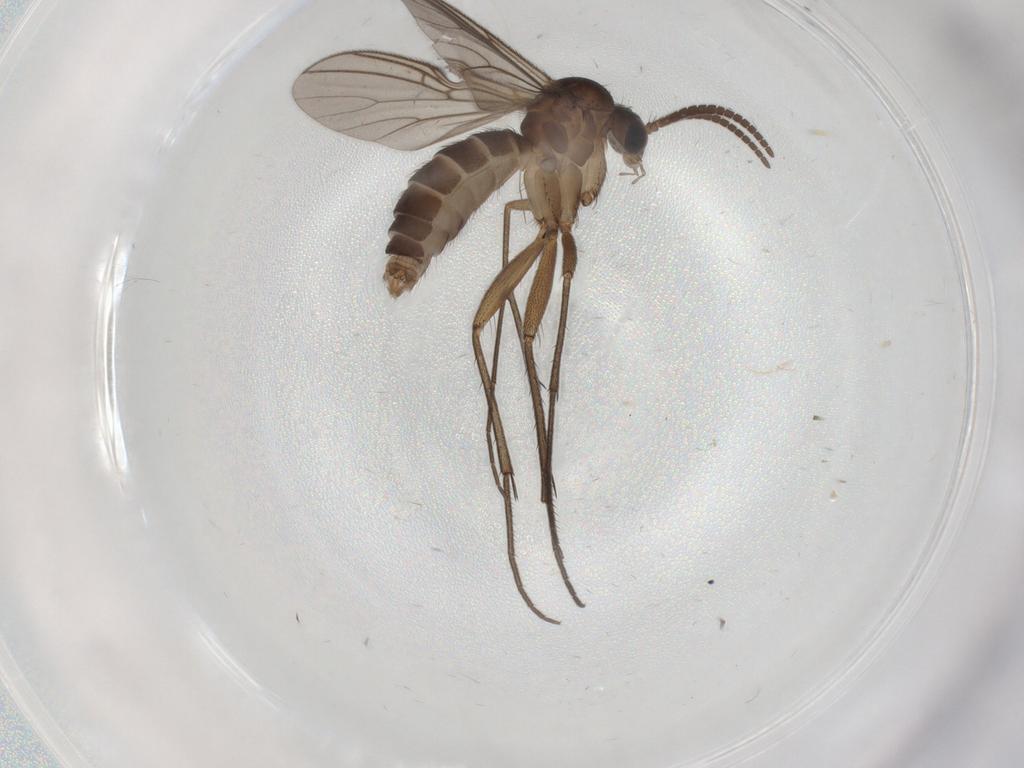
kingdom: Animalia
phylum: Arthropoda
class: Insecta
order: Diptera
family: Mycetophilidae
